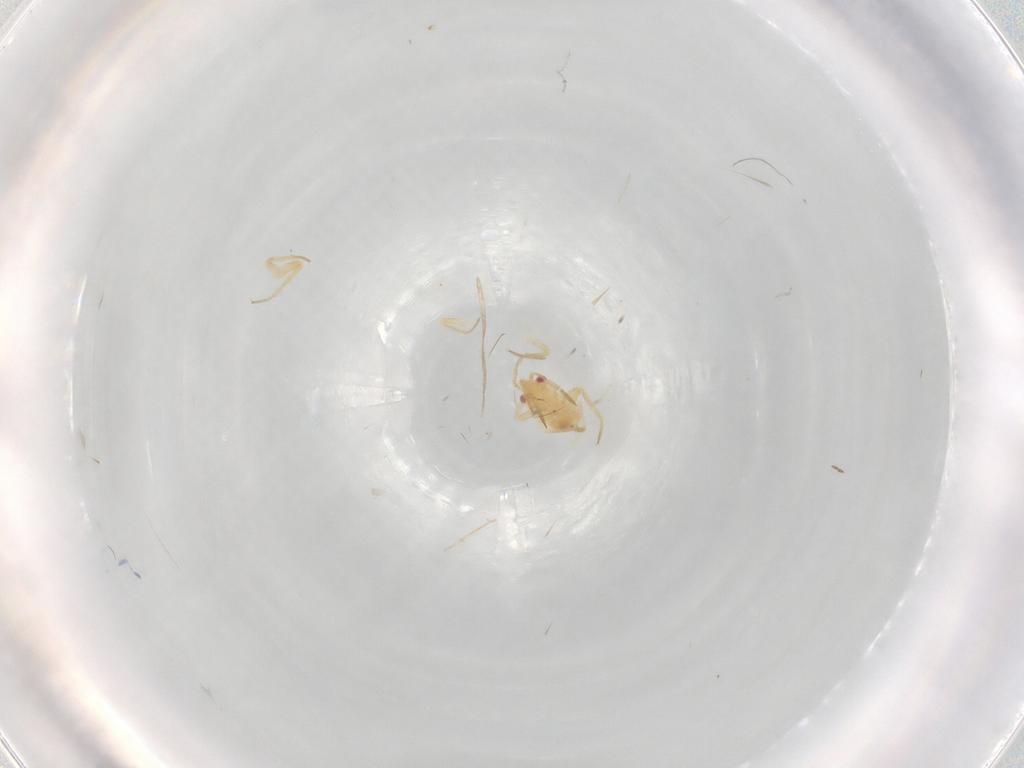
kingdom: Animalia
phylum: Arthropoda
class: Insecta
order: Hemiptera
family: Miridae
